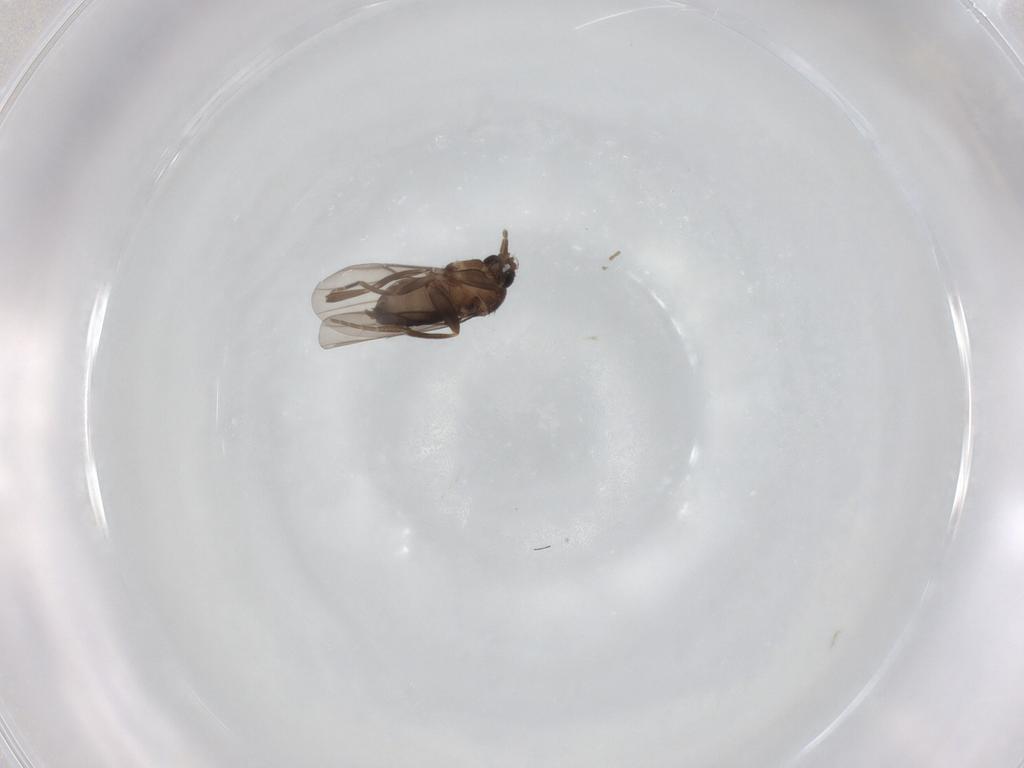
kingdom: Animalia
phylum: Arthropoda
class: Insecta
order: Diptera
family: Phoridae
